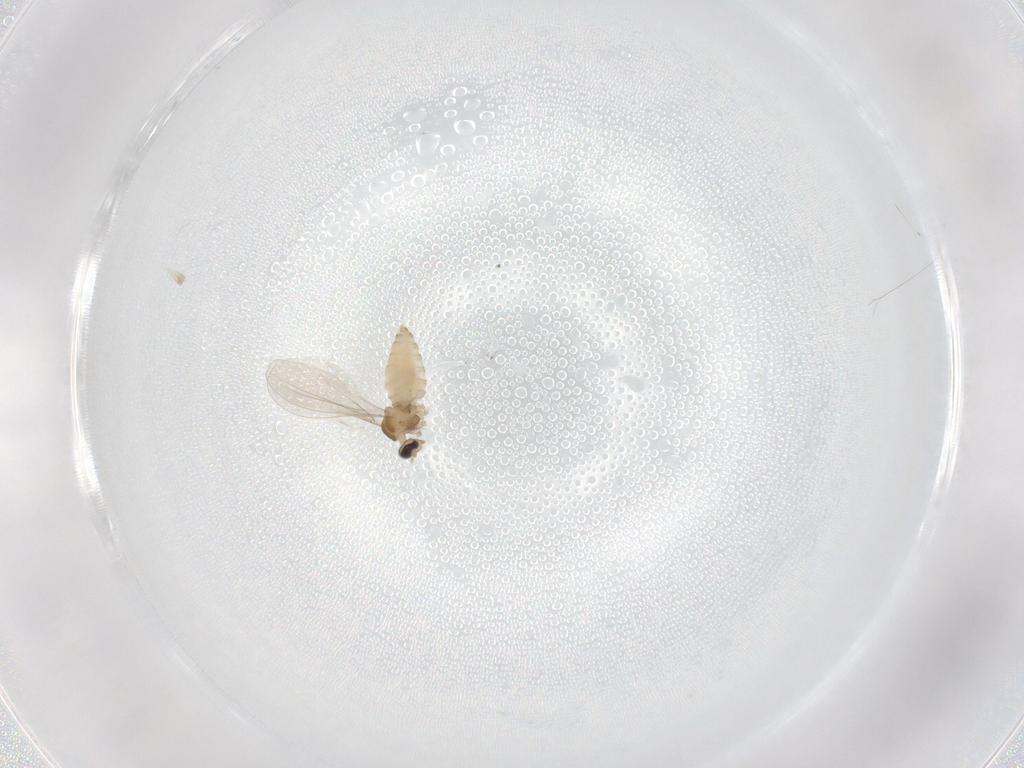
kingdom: Animalia
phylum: Arthropoda
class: Insecta
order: Diptera
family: Cecidomyiidae
